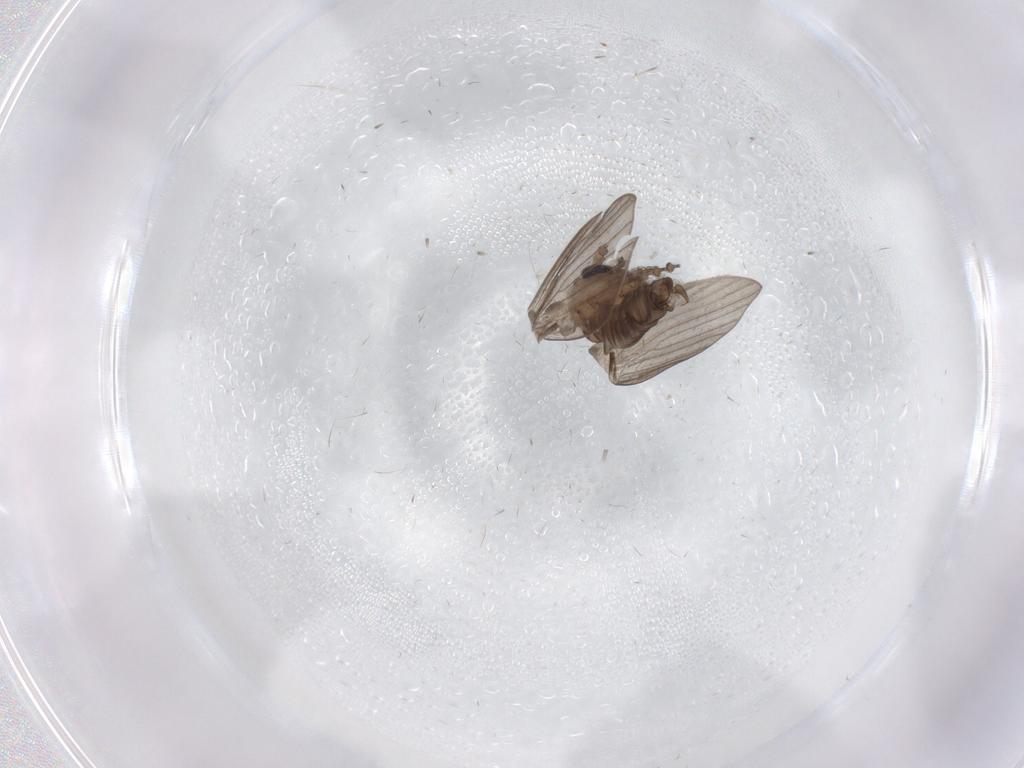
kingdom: Animalia
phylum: Arthropoda
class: Insecta
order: Diptera
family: Psychodidae
